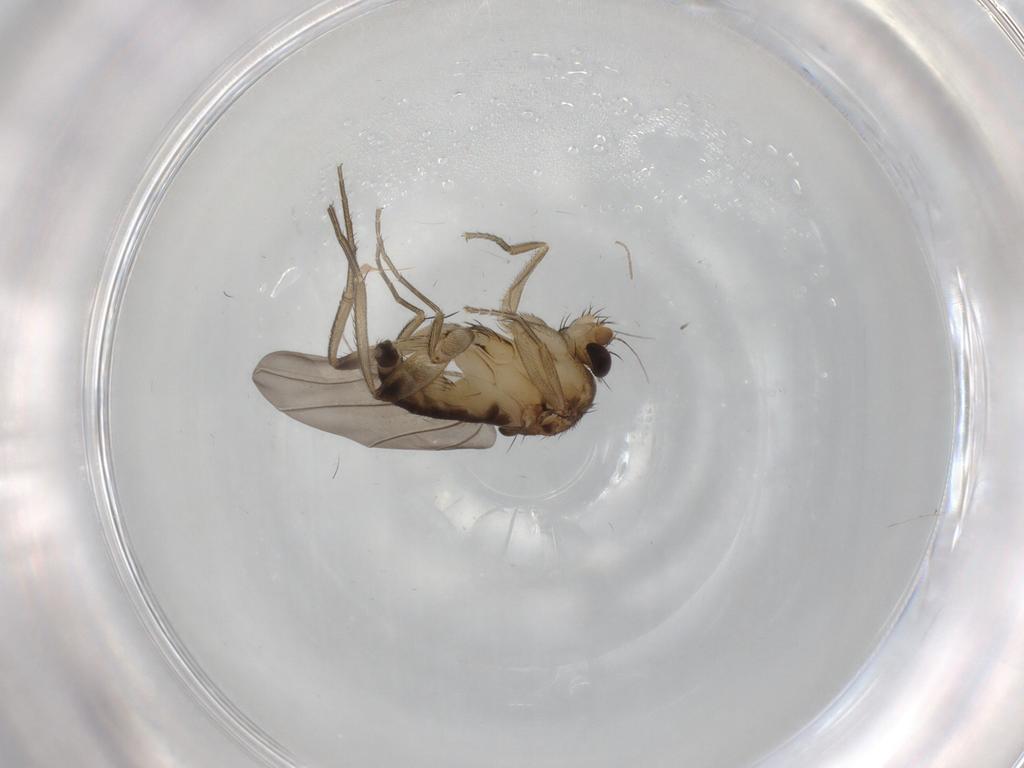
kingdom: Animalia
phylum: Arthropoda
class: Insecta
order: Diptera
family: Phoridae
